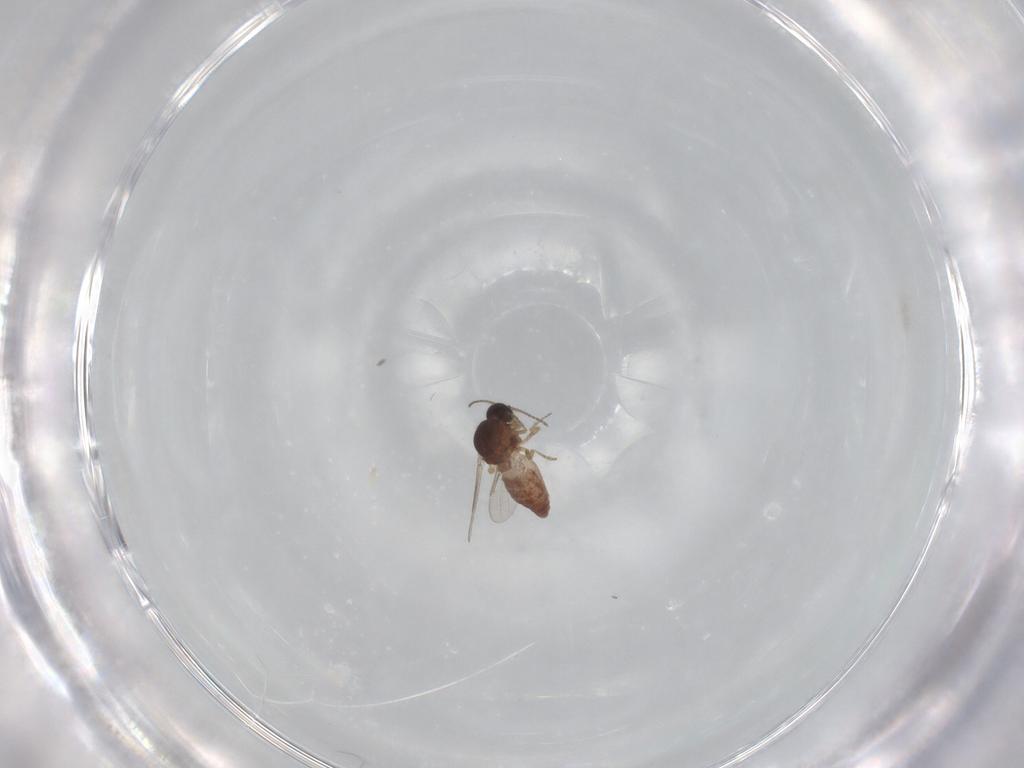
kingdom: Animalia
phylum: Arthropoda
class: Insecta
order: Diptera
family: Ceratopogonidae
